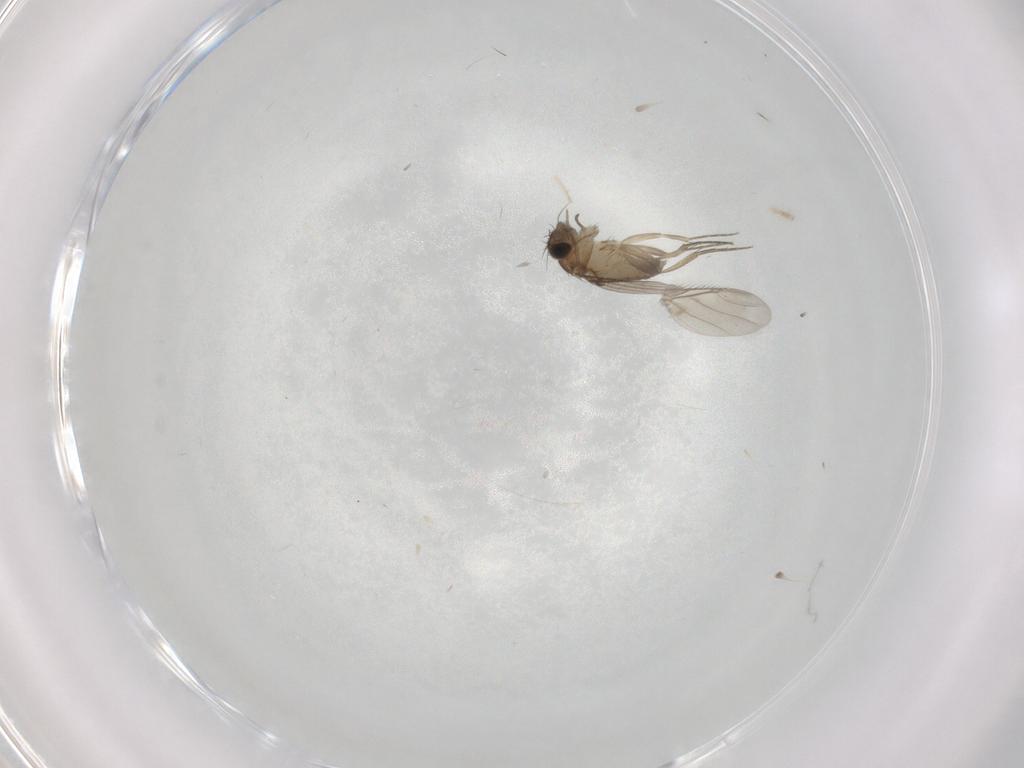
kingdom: Animalia
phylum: Arthropoda
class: Insecta
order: Diptera
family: Phoridae
